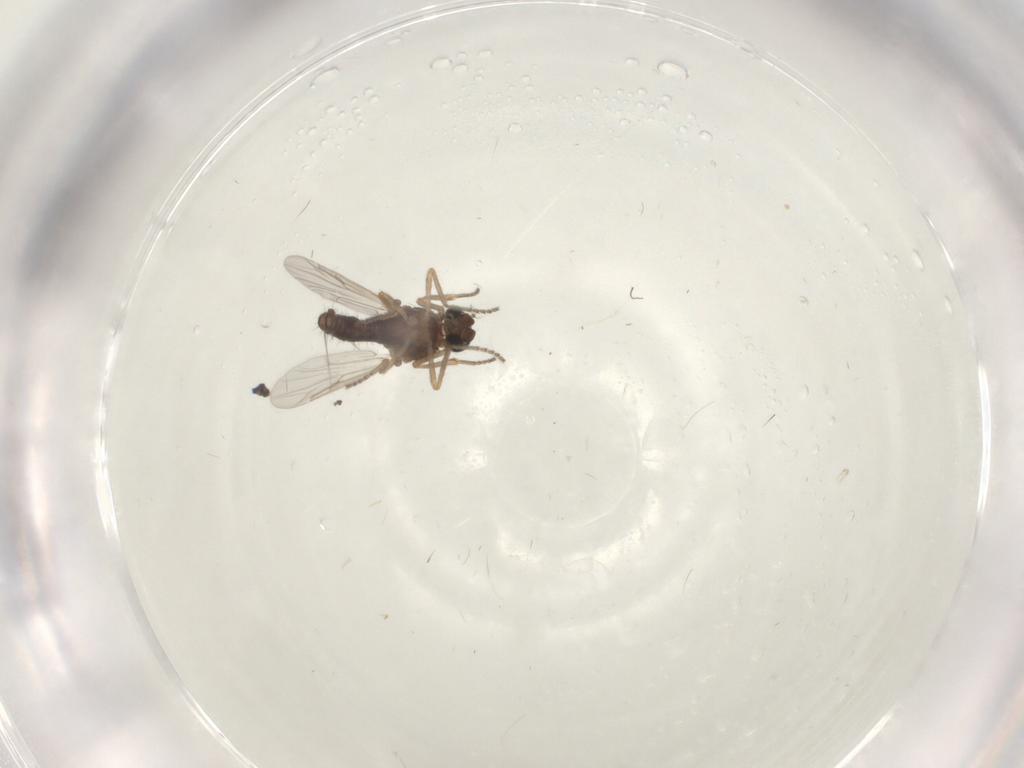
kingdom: Animalia
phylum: Arthropoda
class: Insecta
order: Diptera
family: Ceratopogonidae
